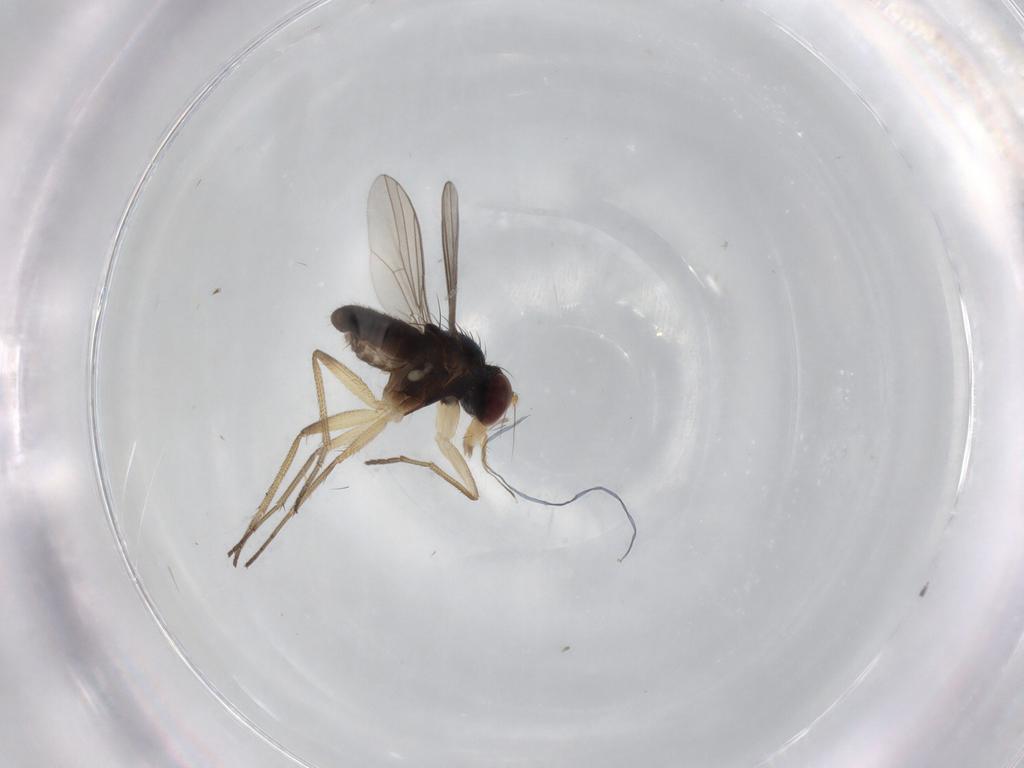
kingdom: Animalia
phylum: Arthropoda
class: Insecta
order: Diptera
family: Dolichopodidae
